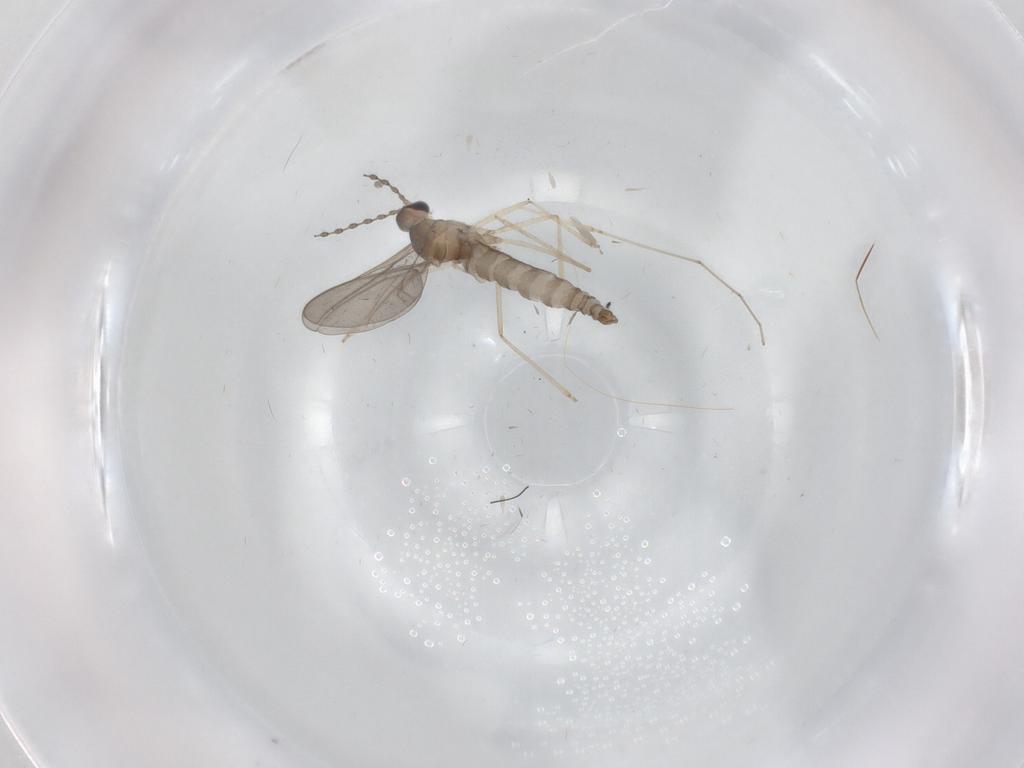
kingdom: Animalia
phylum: Arthropoda
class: Insecta
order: Diptera
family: Cecidomyiidae
